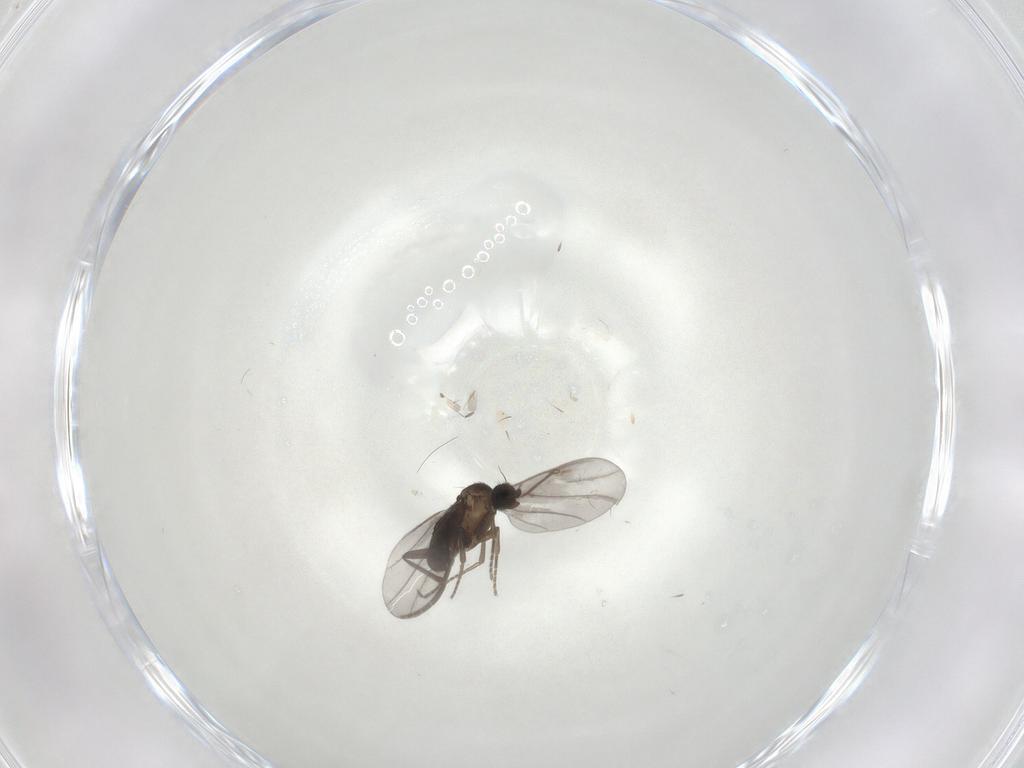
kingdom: Animalia
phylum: Arthropoda
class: Insecta
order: Diptera
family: Cecidomyiidae
